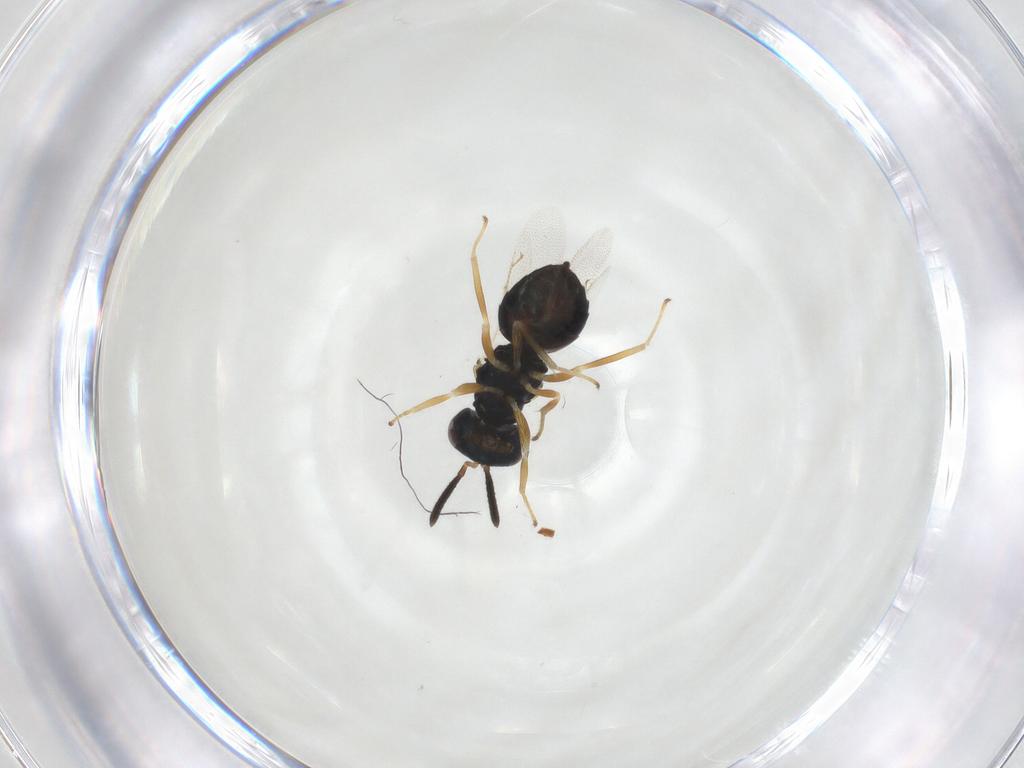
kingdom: Animalia
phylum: Arthropoda
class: Insecta
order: Hymenoptera
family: Pteromalidae
